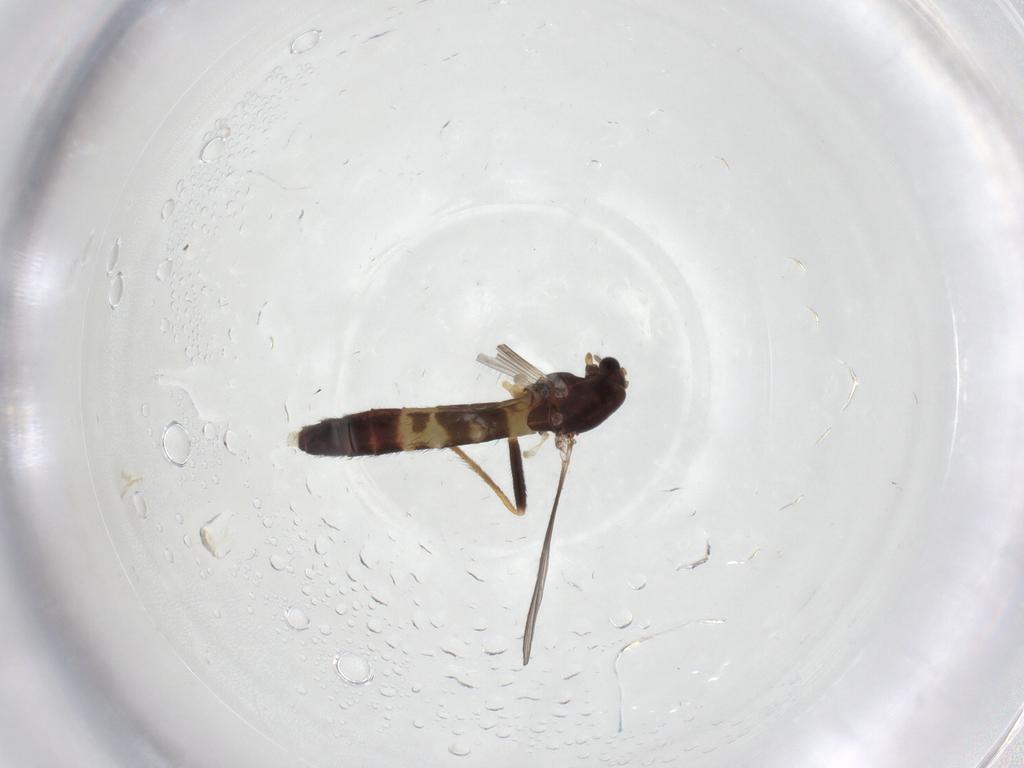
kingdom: Animalia
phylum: Arthropoda
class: Insecta
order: Diptera
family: Chironomidae
